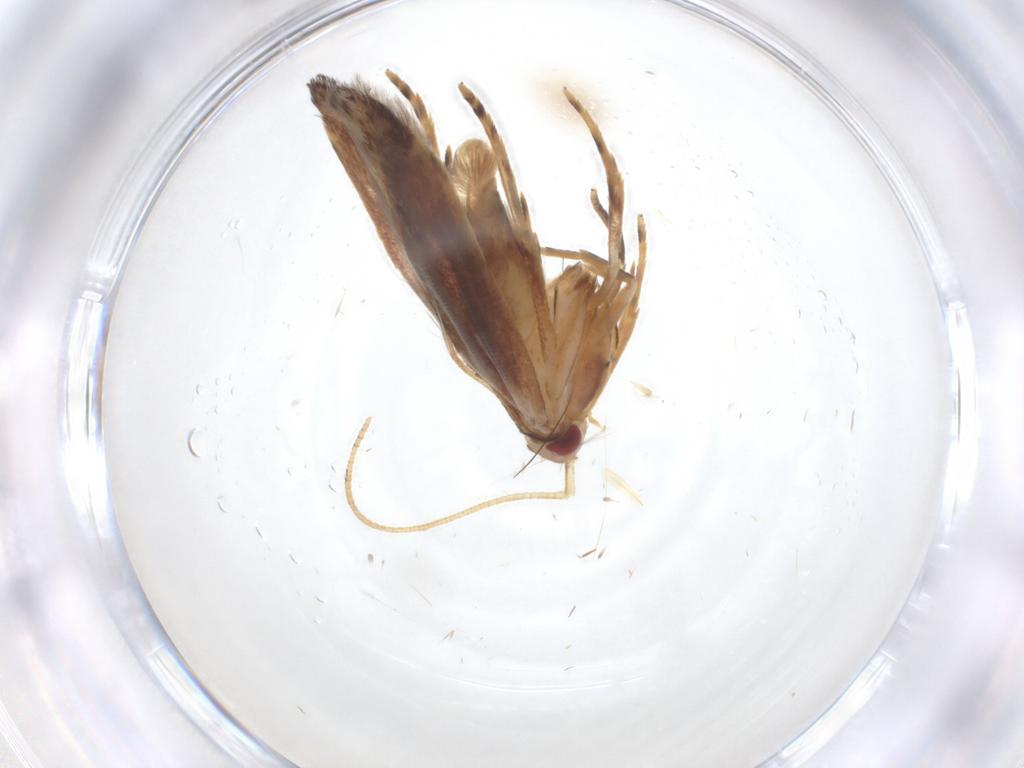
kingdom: Animalia
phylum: Arthropoda
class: Insecta
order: Lepidoptera
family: Cosmopterigidae
